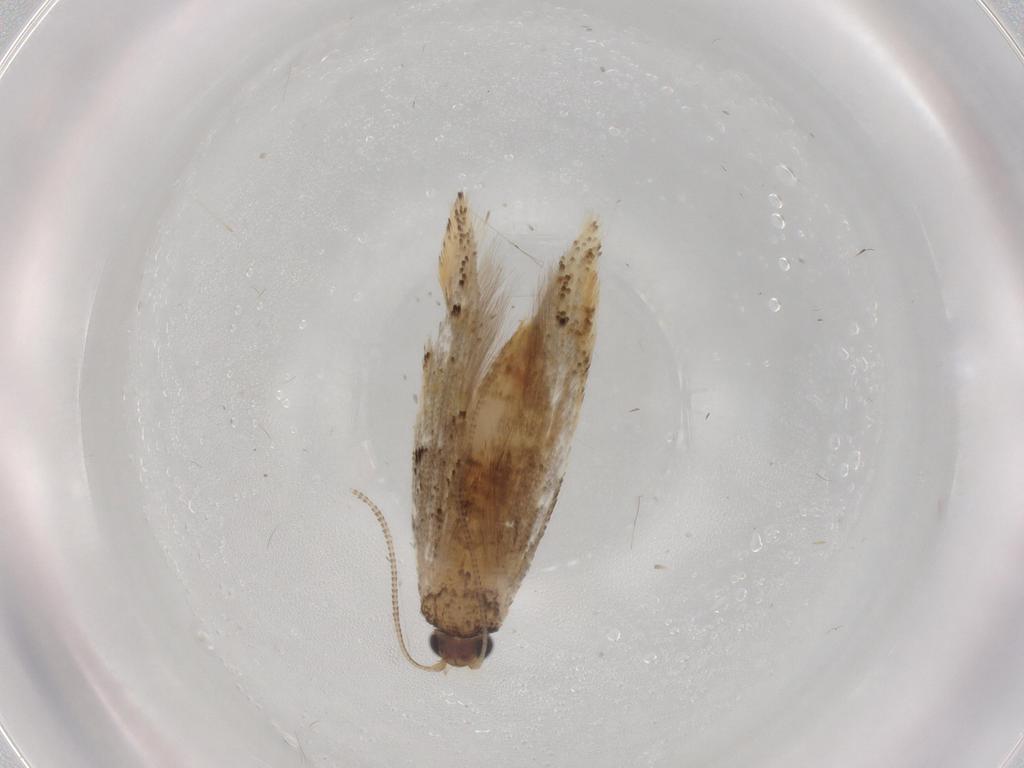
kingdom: Animalia
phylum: Arthropoda
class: Insecta
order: Lepidoptera
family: Tineidae
